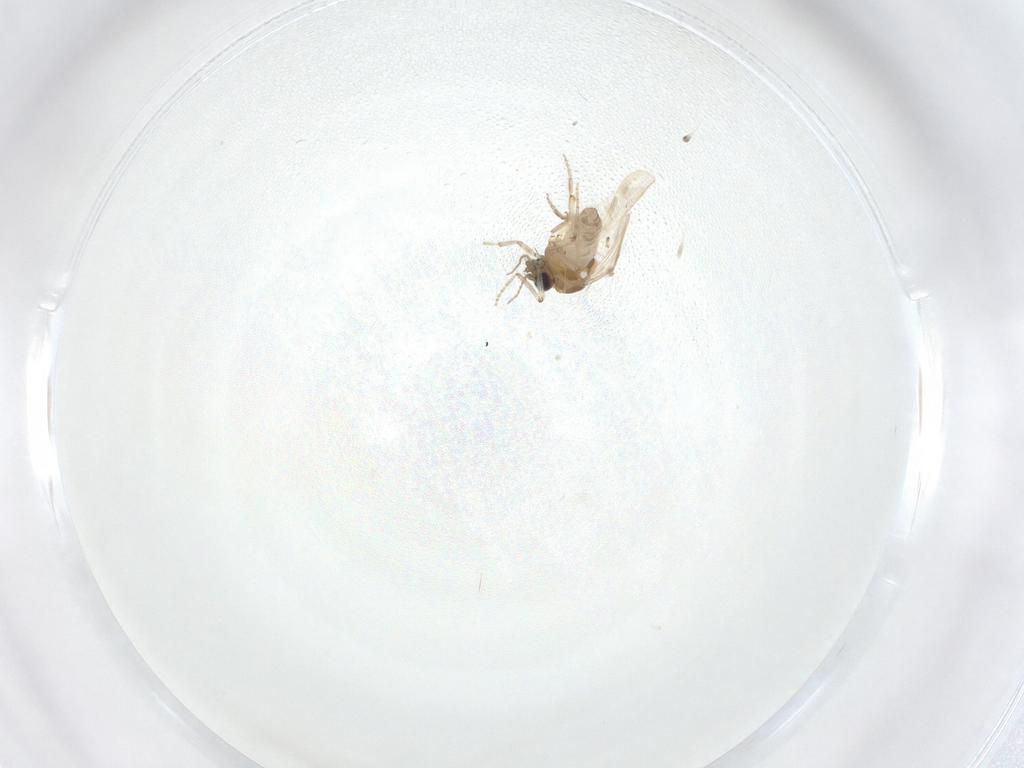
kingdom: Animalia
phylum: Arthropoda
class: Insecta
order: Diptera
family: Ceratopogonidae
